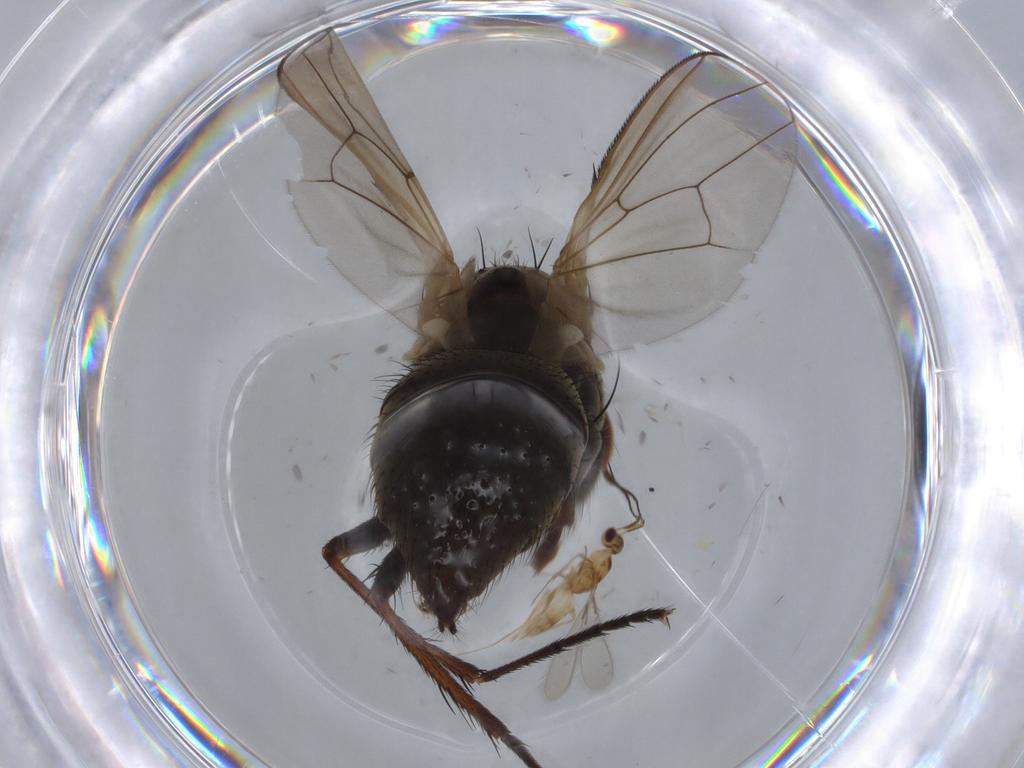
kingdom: Animalia
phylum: Arthropoda
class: Insecta
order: Diptera
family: Anthomyiidae
